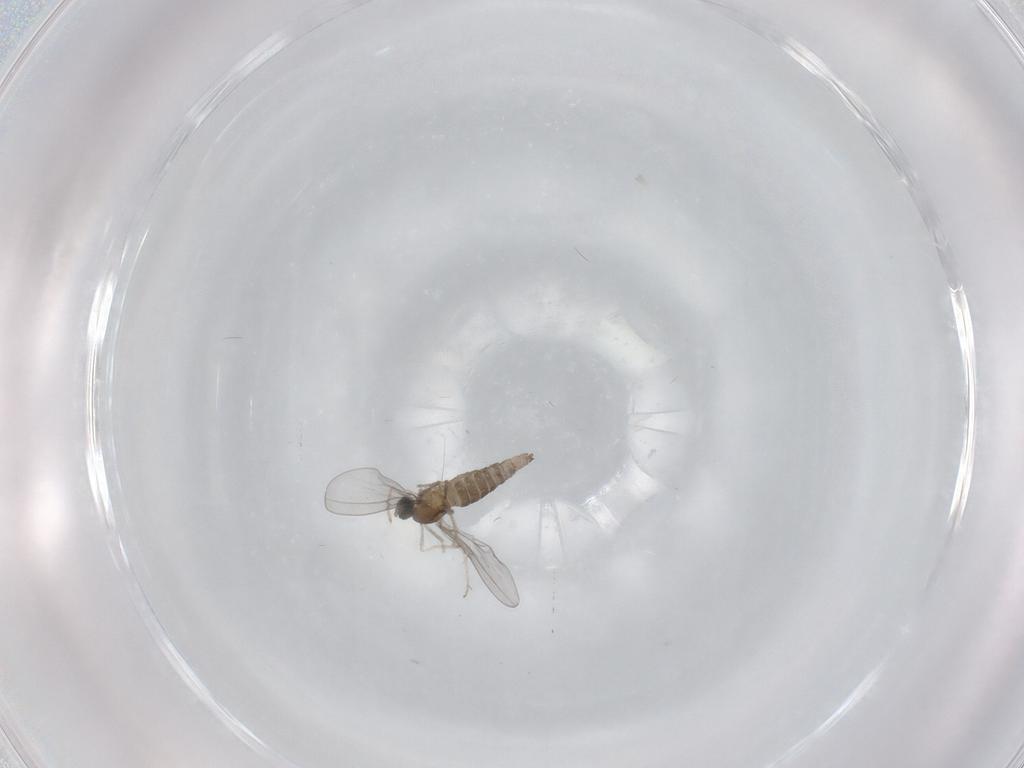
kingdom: Animalia
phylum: Arthropoda
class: Insecta
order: Diptera
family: Cecidomyiidae
